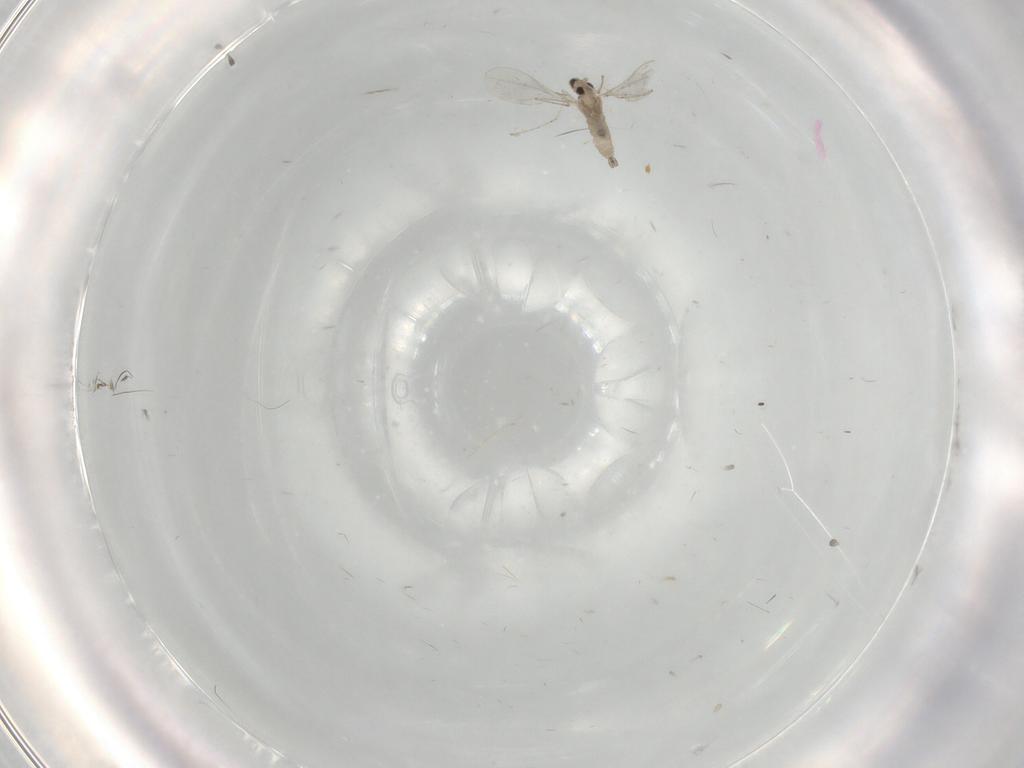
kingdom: Animalia
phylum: Arthropoda
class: Insecta
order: Diptera
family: Cecidomyiidae
